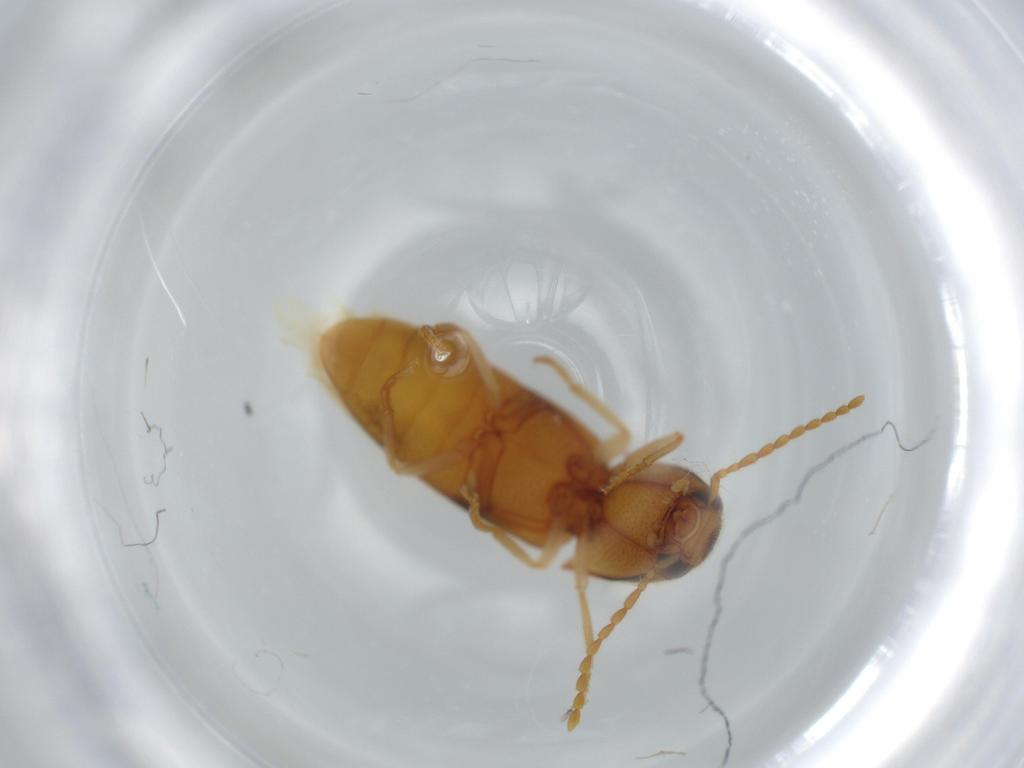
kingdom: Animalia
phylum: Arthropoda
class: Insecta
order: Coleoptera
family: Elateridae
